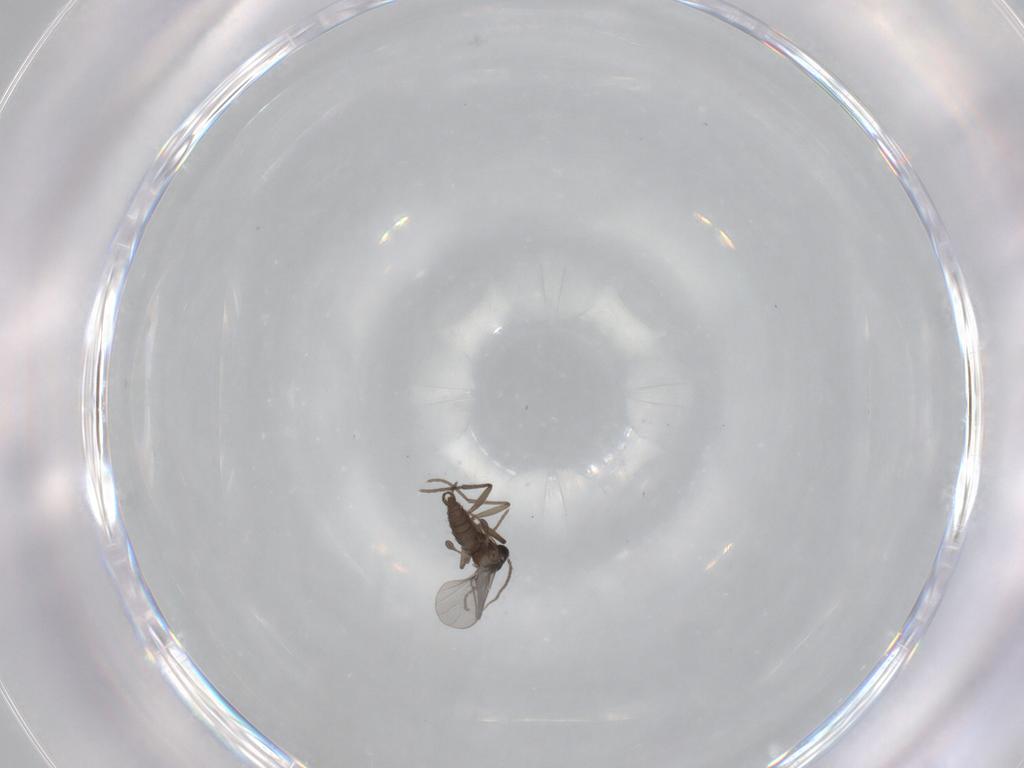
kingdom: Animalia
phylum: Arthropoda
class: Insecta
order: Diptera
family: Sciaridae
